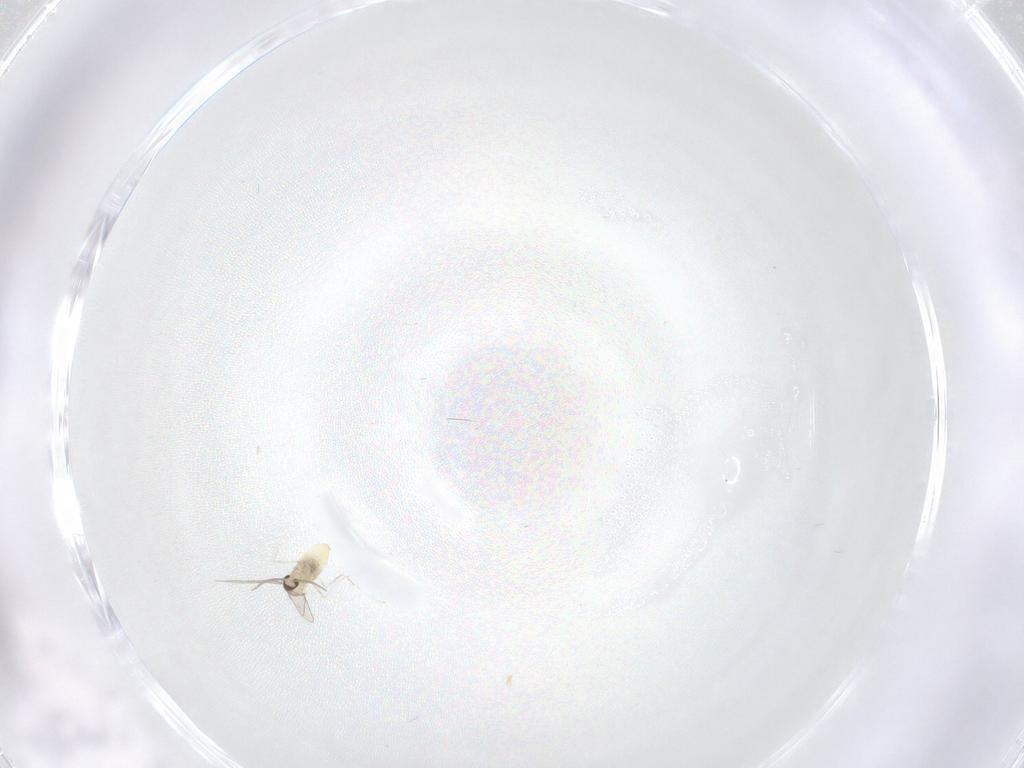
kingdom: Animalia
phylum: Arthropoda
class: Insecta
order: Diptera
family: Cecidomyiidae
